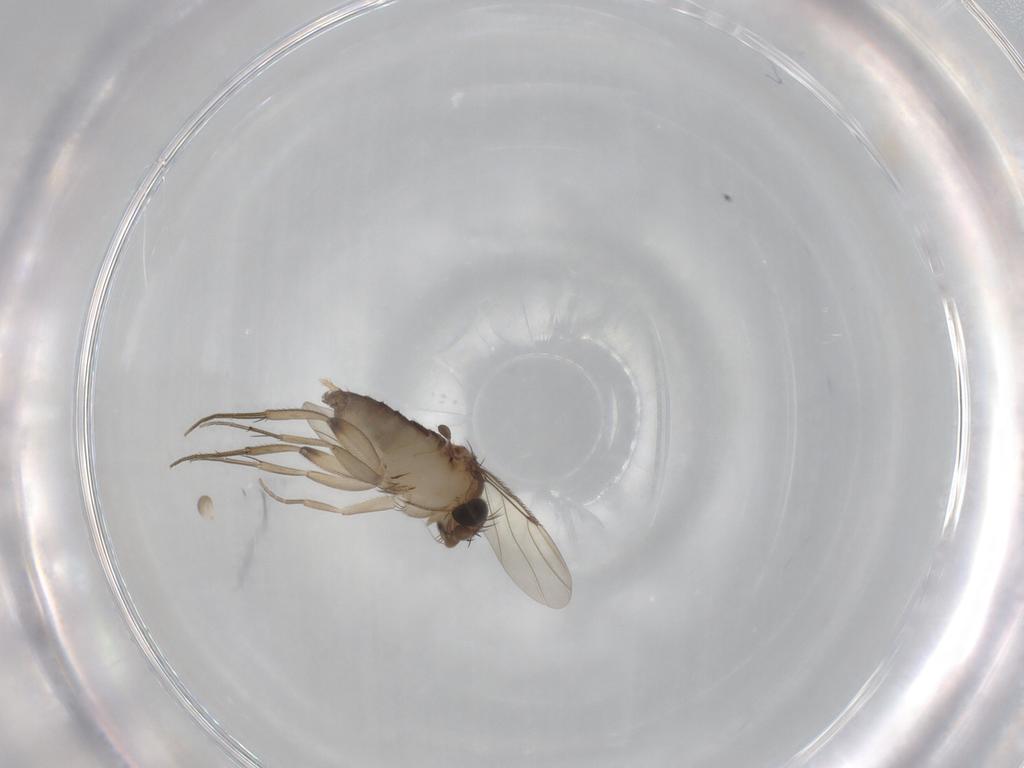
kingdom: Animalia
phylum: Arthropoda
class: Insecta
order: Diptera
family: Phoridae
